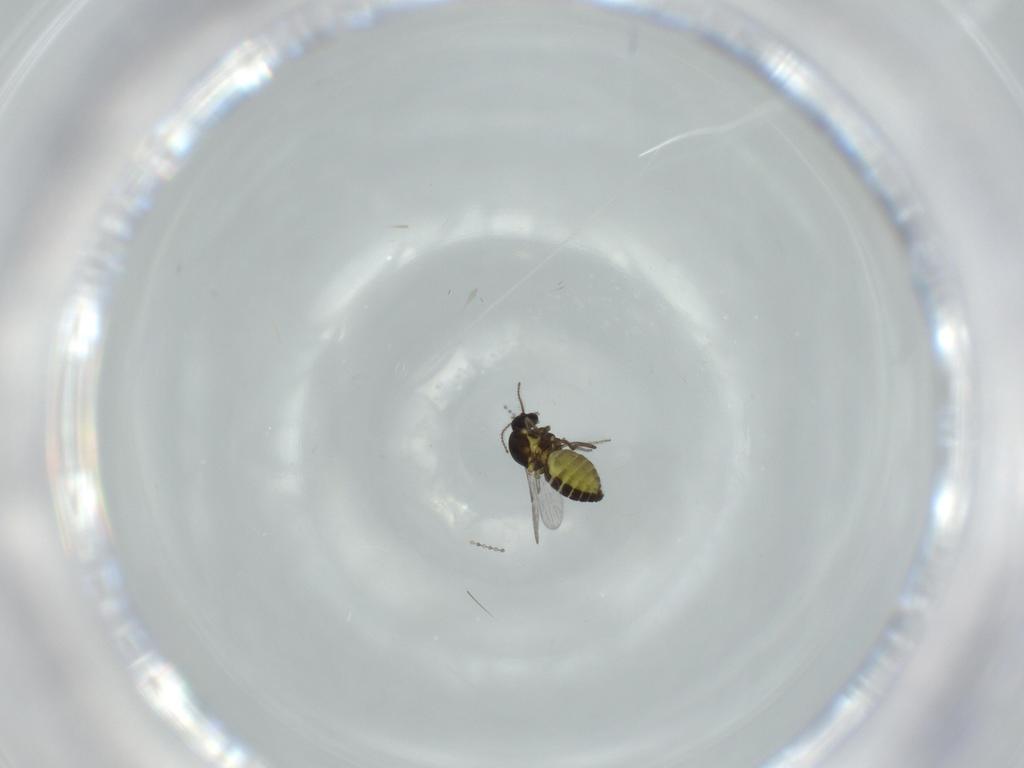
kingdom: Animalia
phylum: Arthropoda
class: Insecta
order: Diptera
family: Cecidomyiidae
